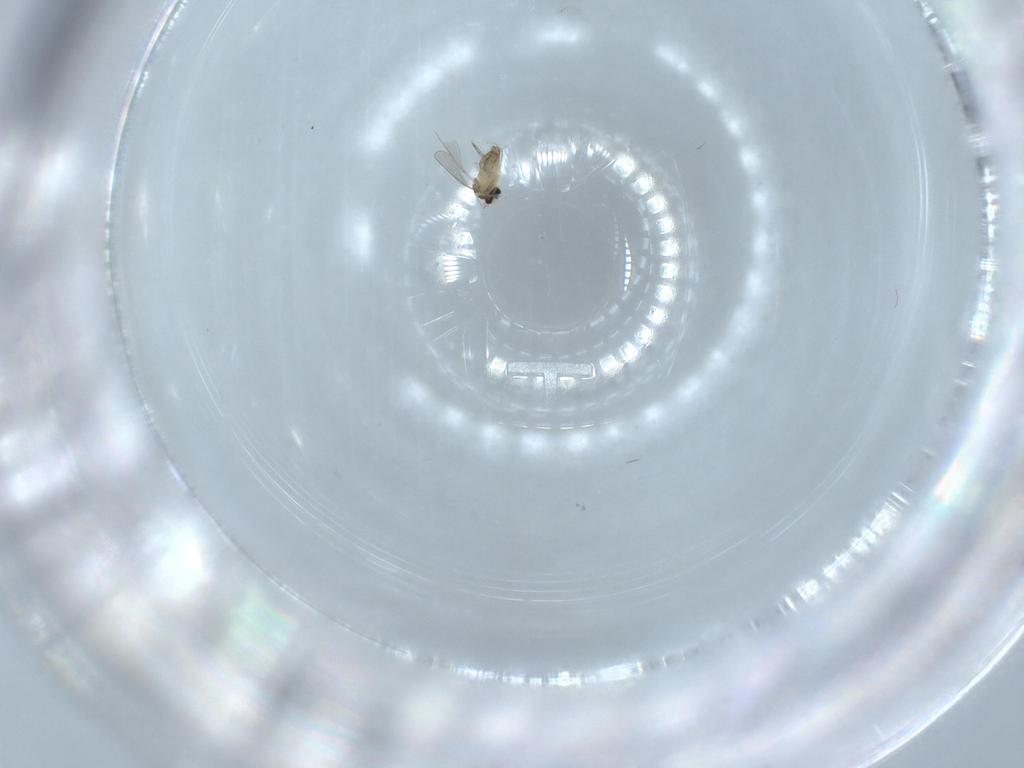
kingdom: Animalia
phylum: Arthropoda
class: Insecta
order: Diptera
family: Cecidomyiidae
